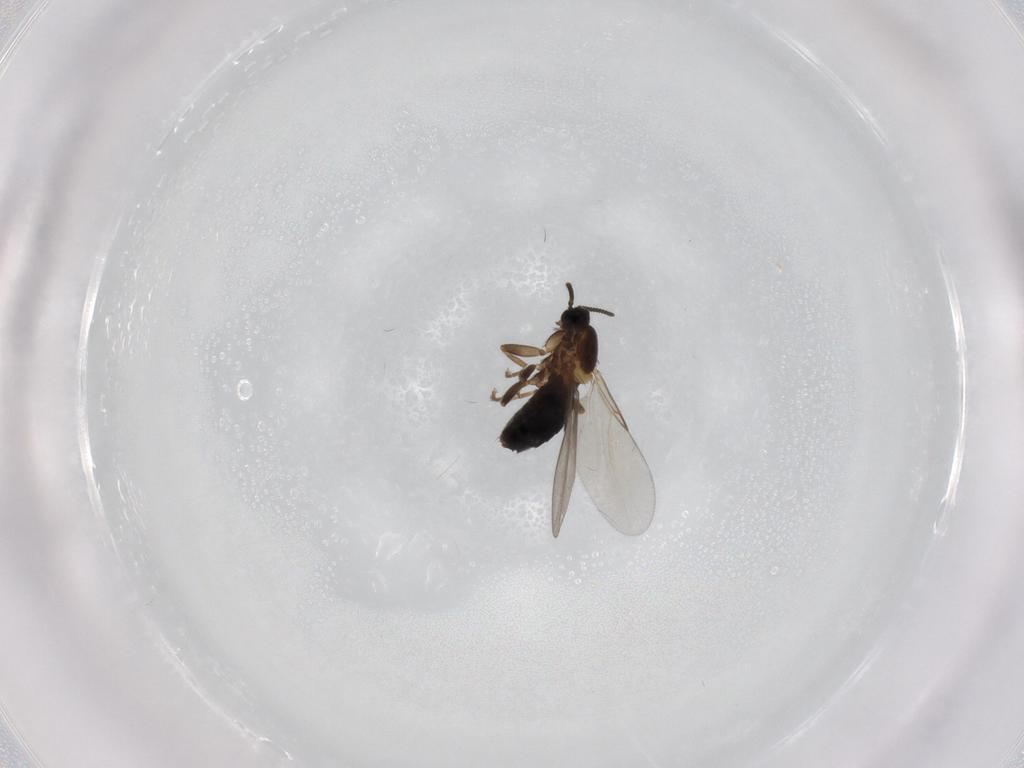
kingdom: Animalia
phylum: Arthropoda
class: Insecta
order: Diptera
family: Scatopsidae
